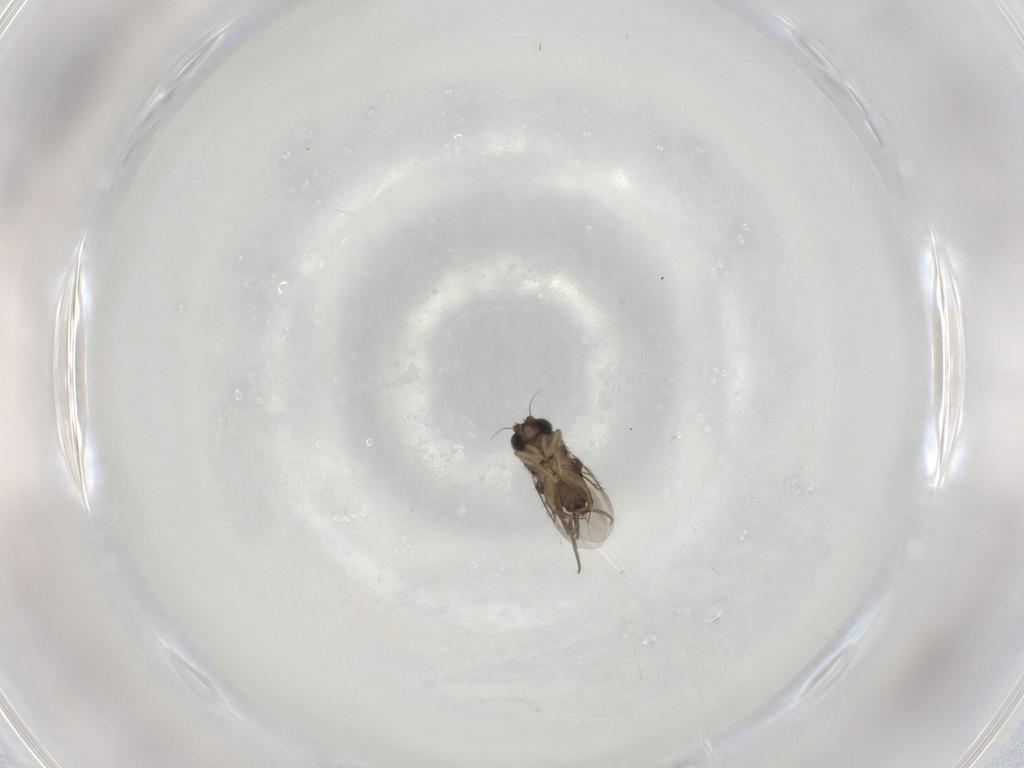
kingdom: Animalia
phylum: Arthropoda
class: Insecta
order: Diptera
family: Phoridae
